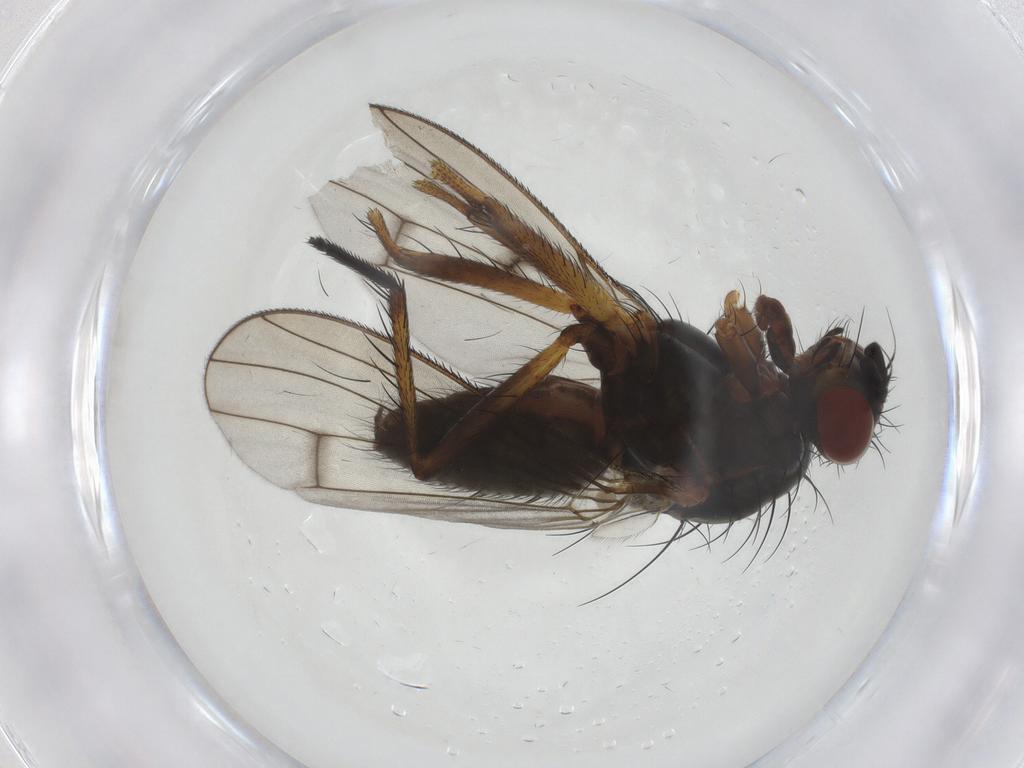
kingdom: Animalia
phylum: Arthropoda
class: Insecta
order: Diptera
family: Anthomyiidae
